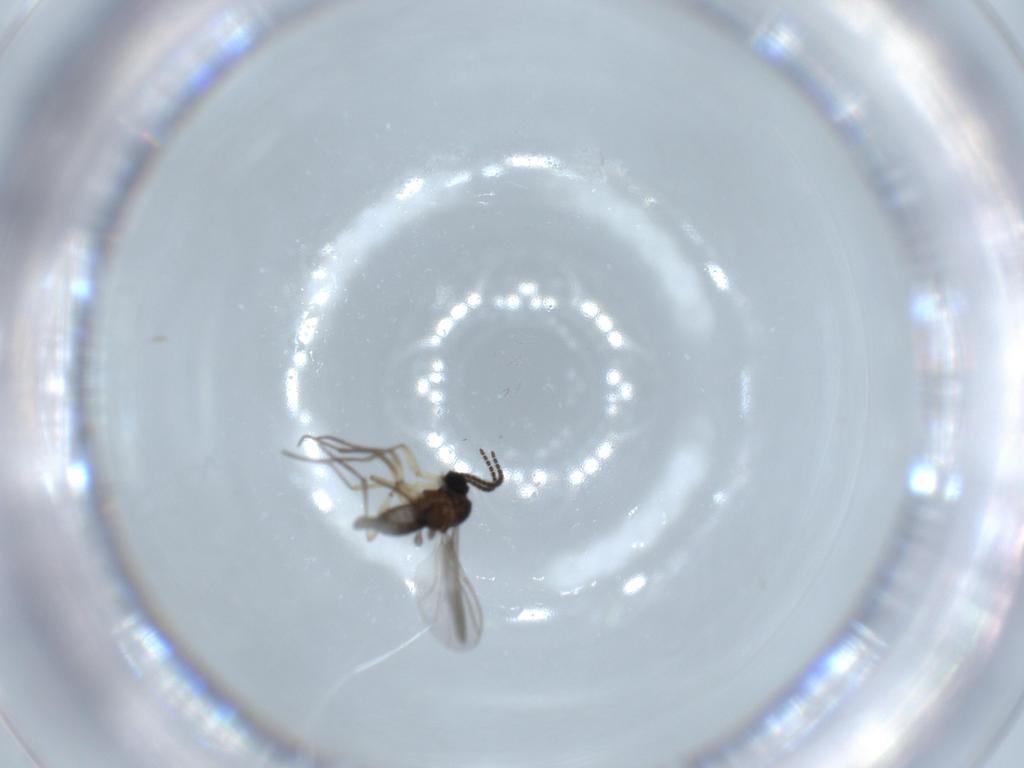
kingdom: Animalia
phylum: Arthropoda
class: Insecta
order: Diptera
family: Sciaridae
